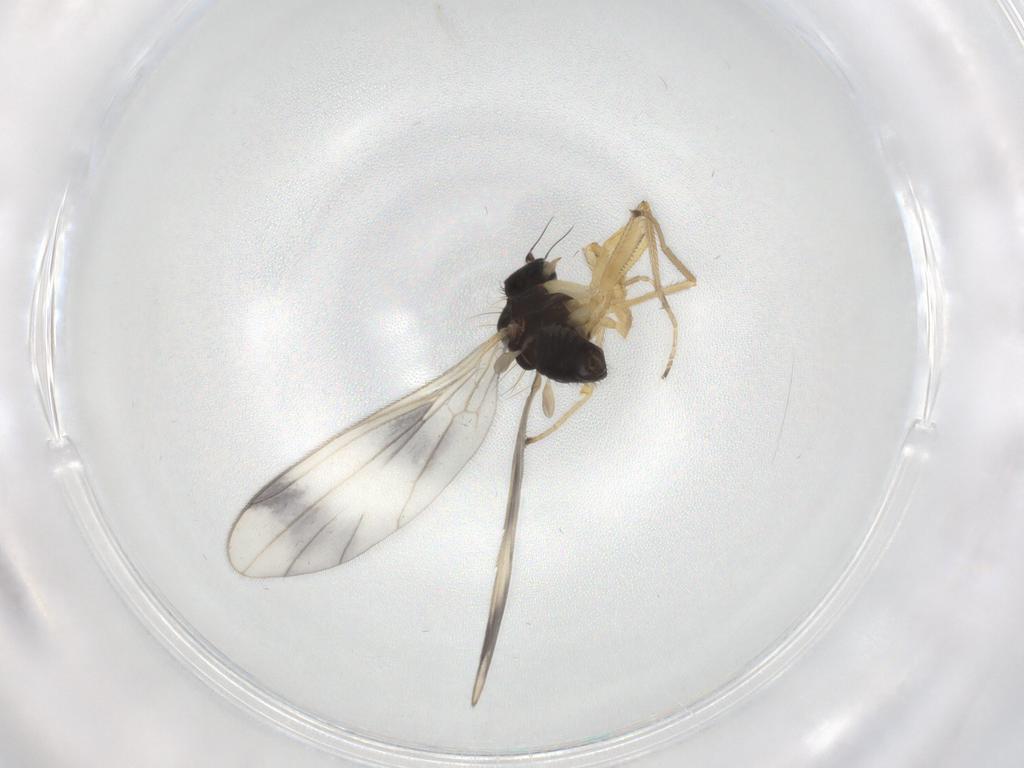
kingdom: Animalia
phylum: Arthropoda
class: Insecta
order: Diptera
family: Empididae
